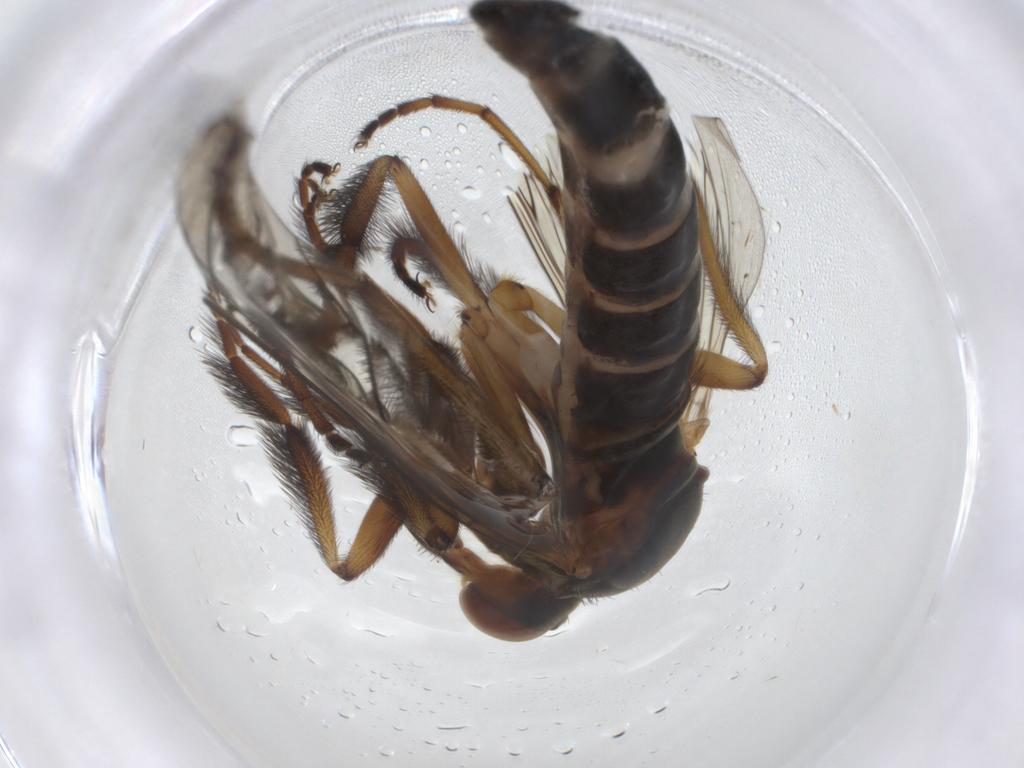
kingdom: Animalia
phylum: Arthropoda
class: Insecta
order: Diptera
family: Empididae
